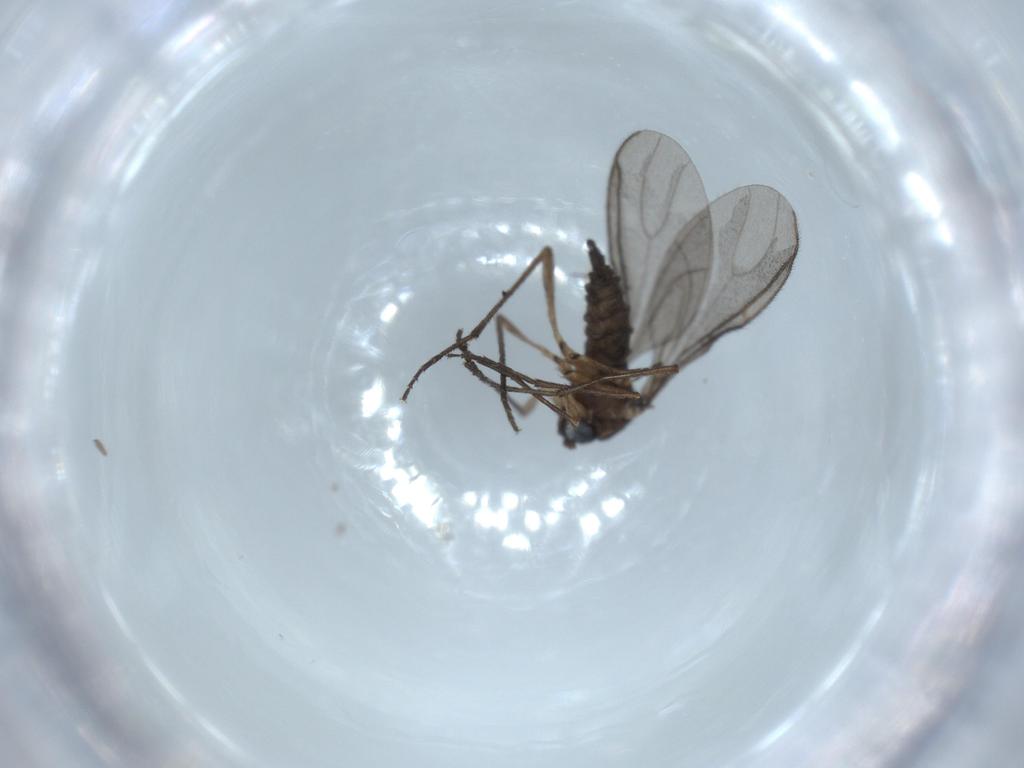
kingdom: Animalia
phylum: Arthropoda
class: Insecta
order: Diptera
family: Sciaridae
